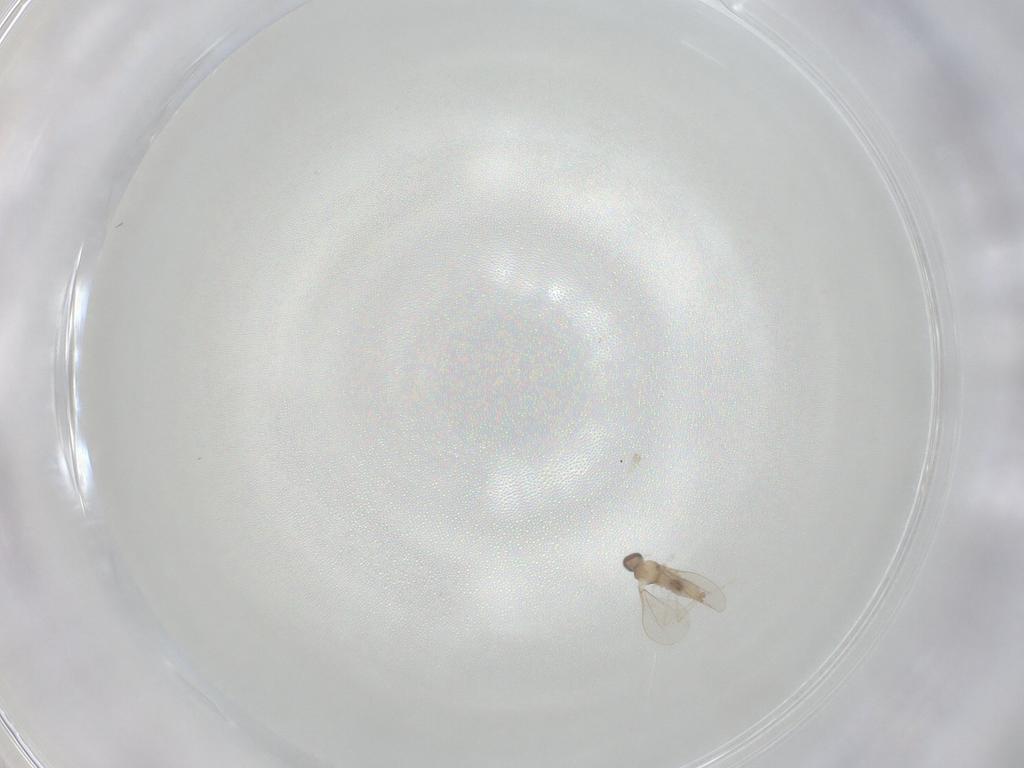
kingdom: Animalia
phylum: Arthropoda
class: Insecta
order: Diptera
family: Cecidomyiidae
